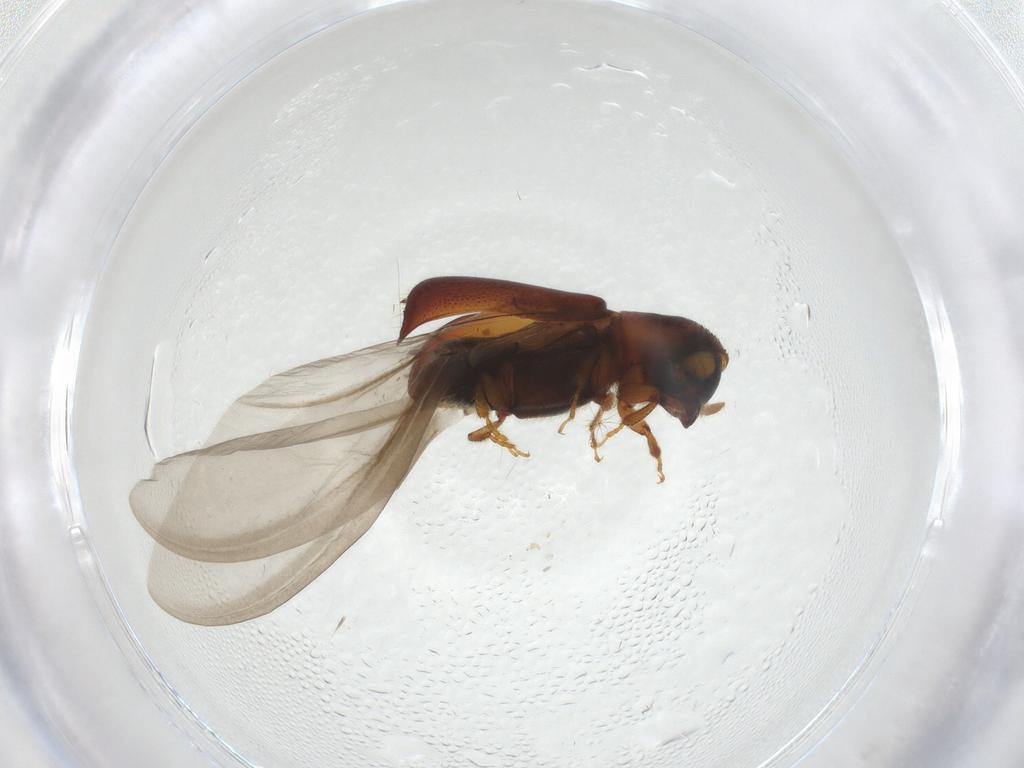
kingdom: Animalia
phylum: Arthropoda
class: Insecta
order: Coleoptera
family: Curculionidae
